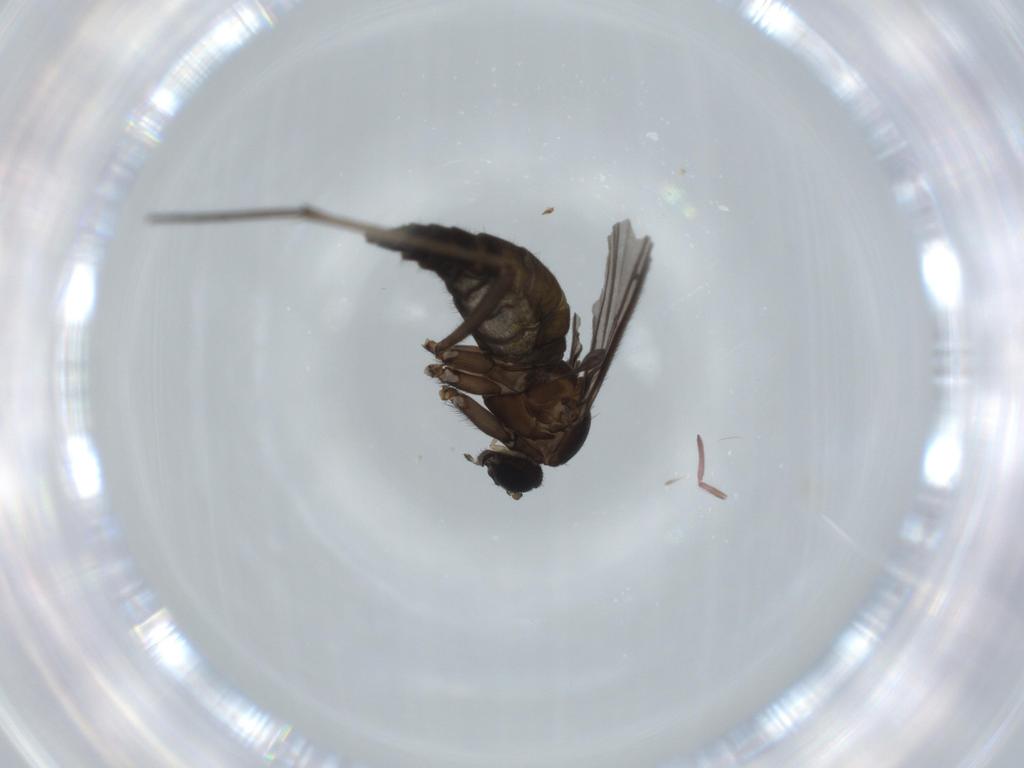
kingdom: Animalia
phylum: Arthropoda
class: Insecta
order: Diptera
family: Sciaridae
